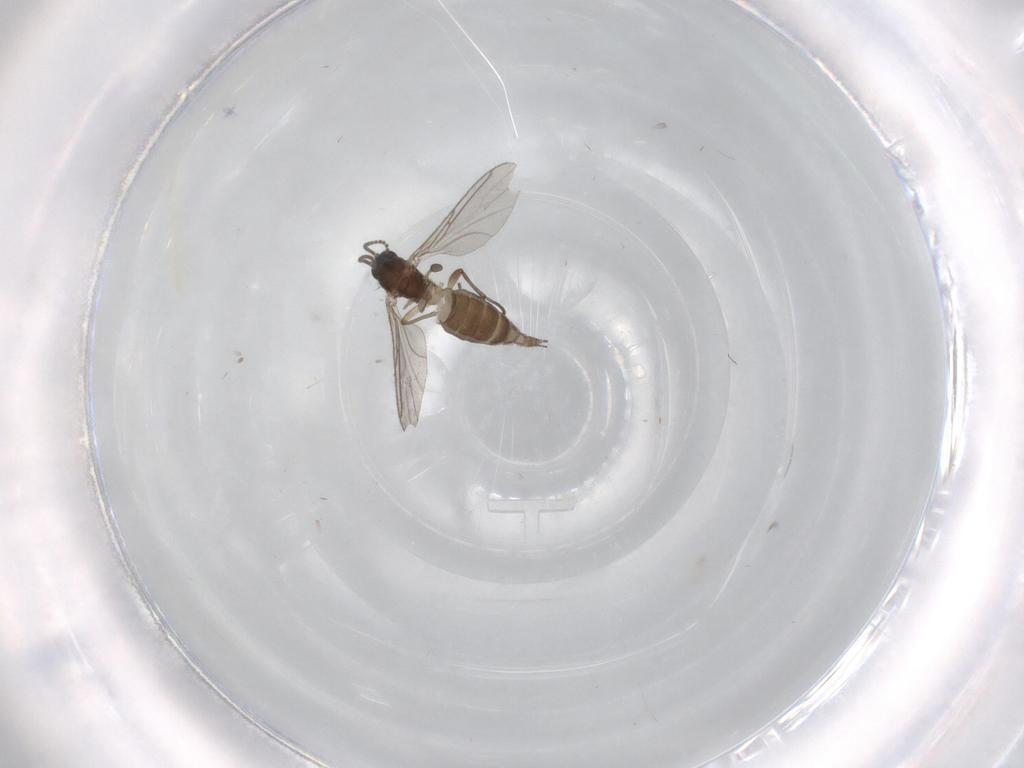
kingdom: Animalia
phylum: Arthropoda
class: Insecta
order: Diptera
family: Sciaridae
